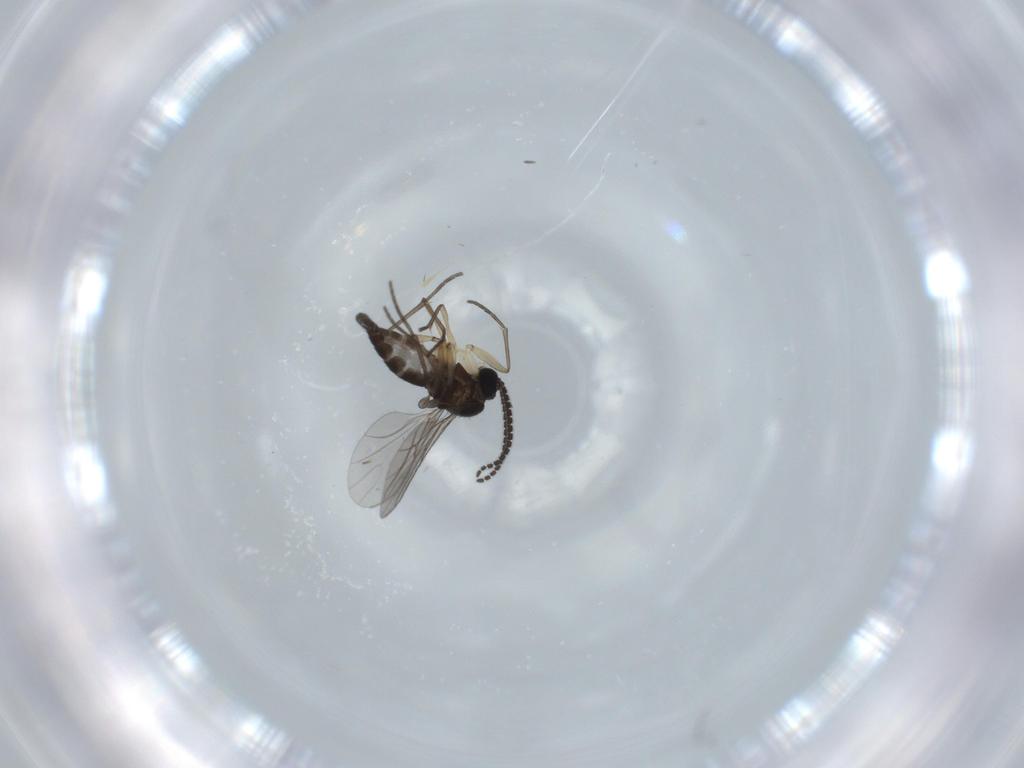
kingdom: Animalia
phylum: Arthropoda
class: Insecta
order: Diptera
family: Sciaridae
